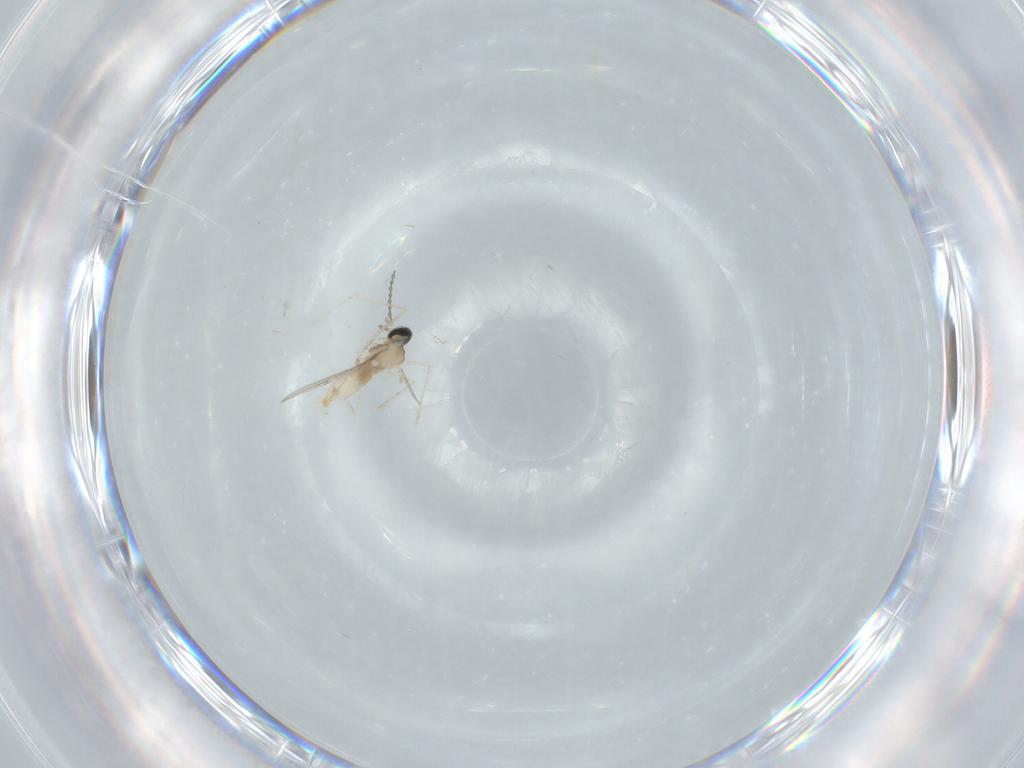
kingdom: Animalia
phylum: Arthropoda
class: Insecta
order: Diptera
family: Cecidomyiidae
